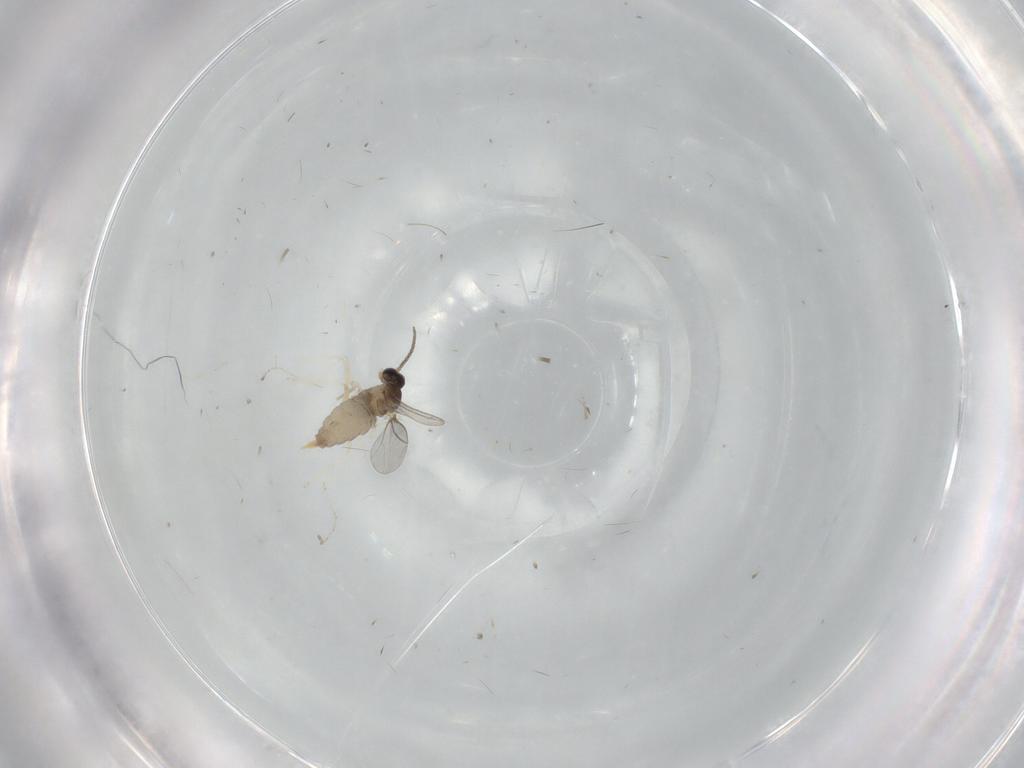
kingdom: Animalia
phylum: Arthropoda
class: Insecta
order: Diptera
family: Cecidomyiidae
